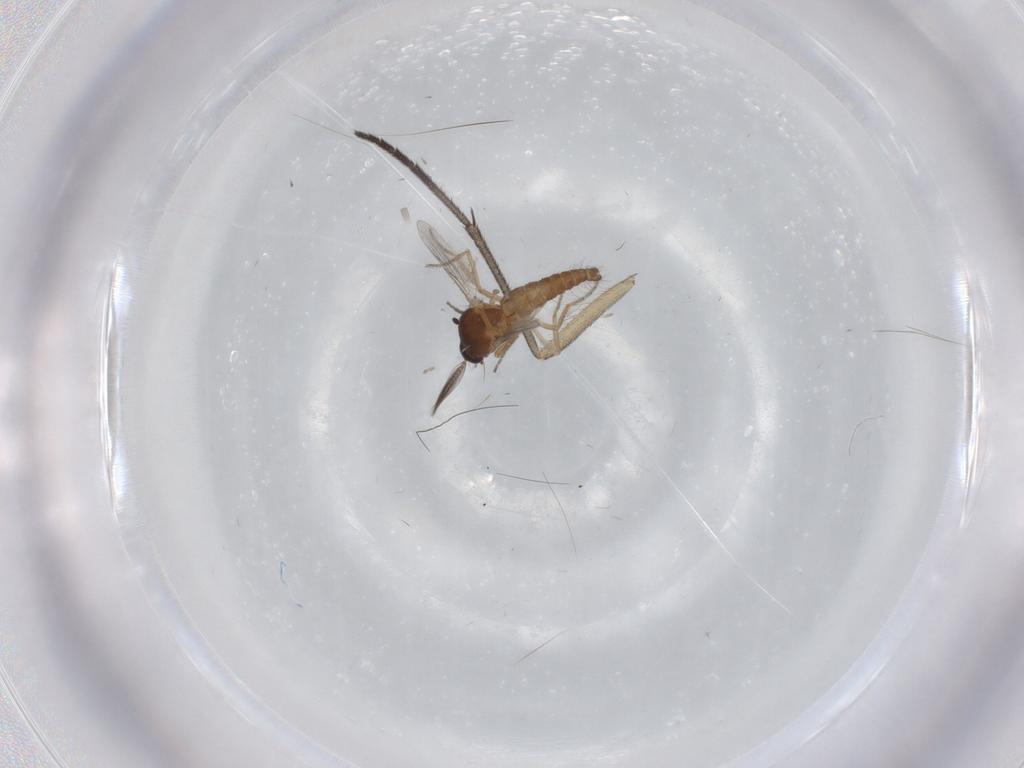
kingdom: Animalia
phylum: Arthropoda
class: Insecta
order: Diptera
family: Ceratopogonidae
